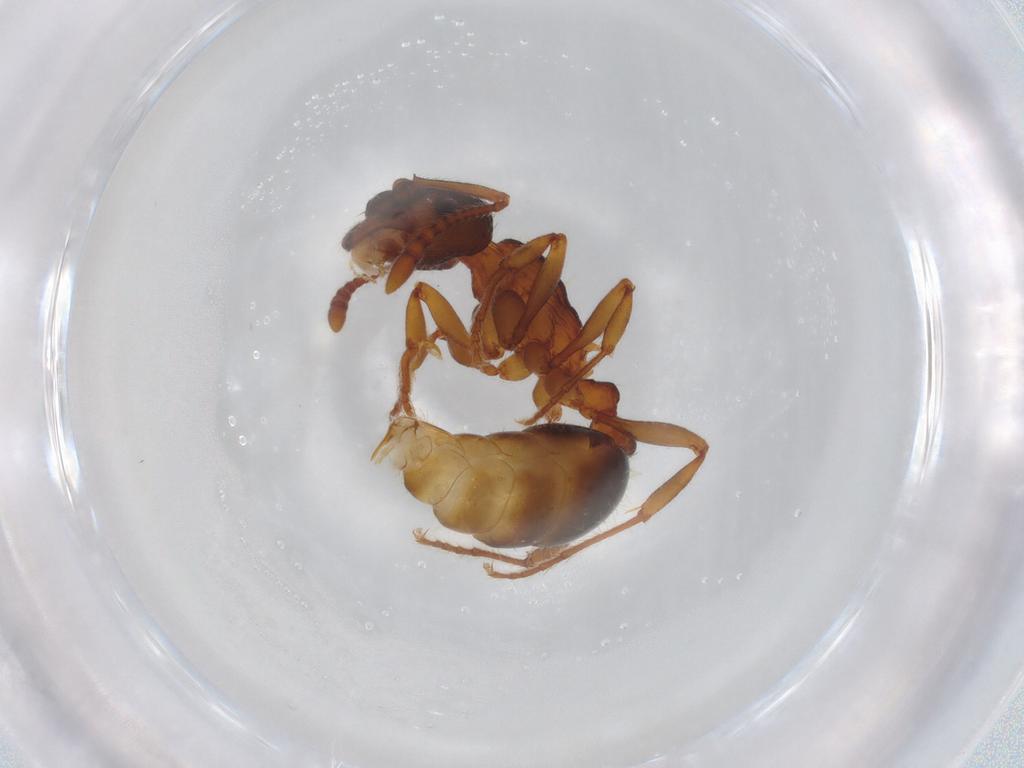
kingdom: Animalia
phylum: Arthropoda
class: Insecta
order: Hymenoptera
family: Formicidae
